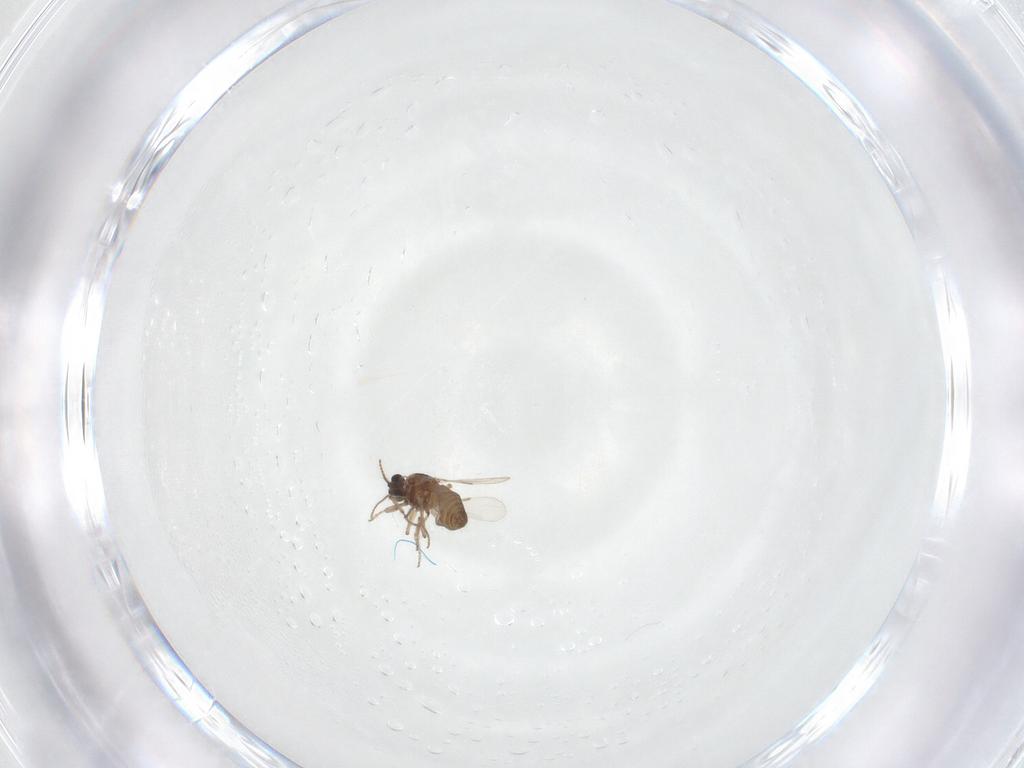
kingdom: Animalia
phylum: Arthropoda
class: Insecta
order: Diptera
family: Ceratopogonidae
